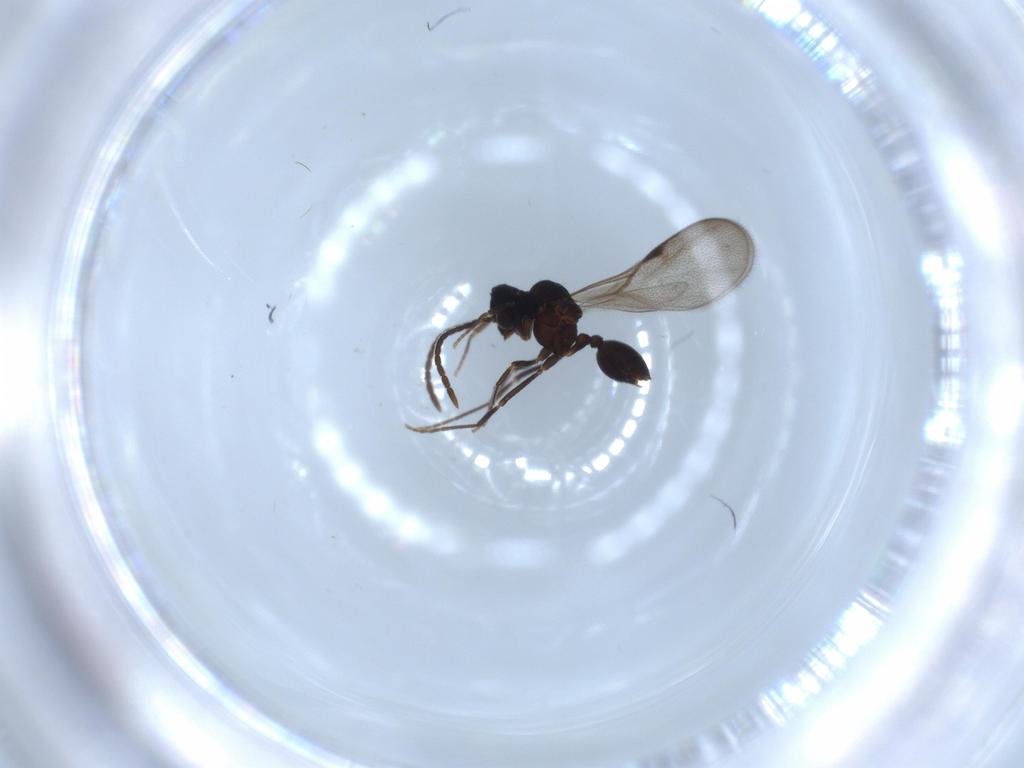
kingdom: Animalia
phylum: Arthropoda
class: Insecta
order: Hymenoptera
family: Formicidae
